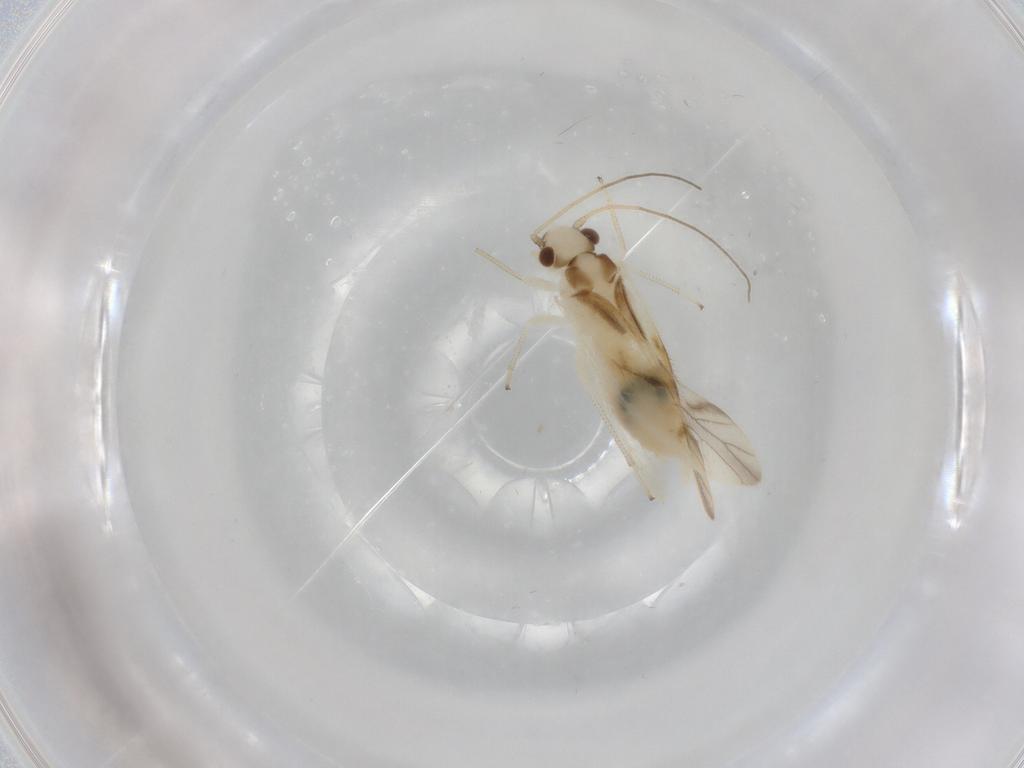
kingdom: Animalia
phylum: Arthropoda
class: Insecta
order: Psocodea
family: Caeciliusidae
